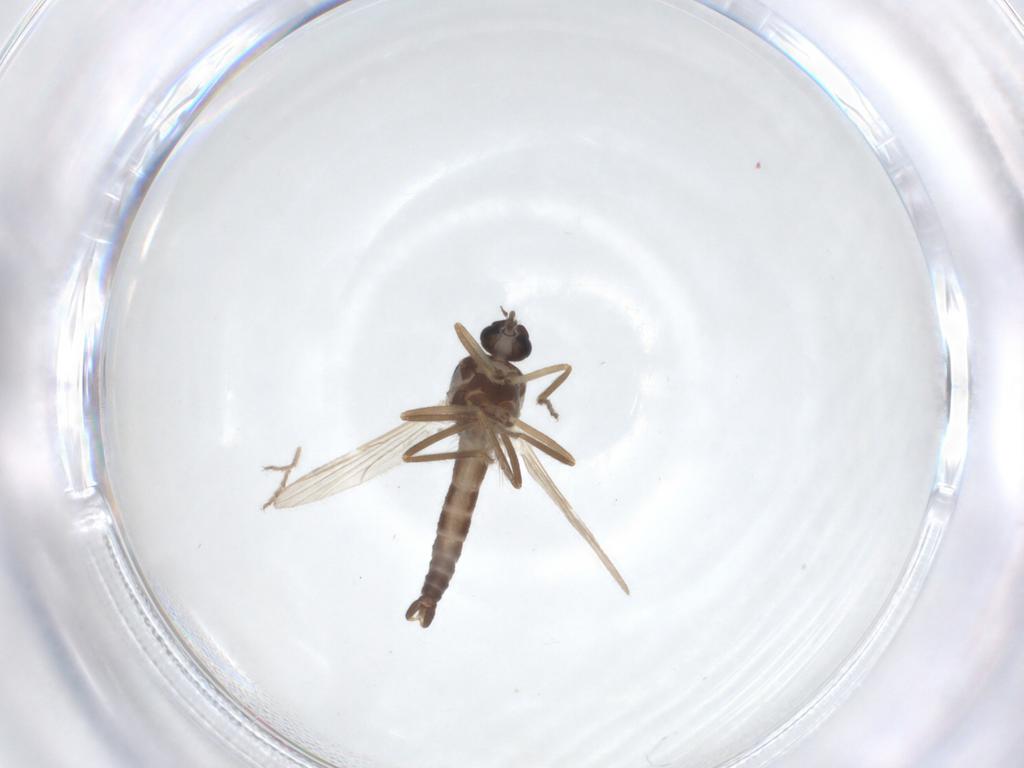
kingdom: Animalia
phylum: Arthropoda
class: Insecta
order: Diptera
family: Ceratopogonidae
